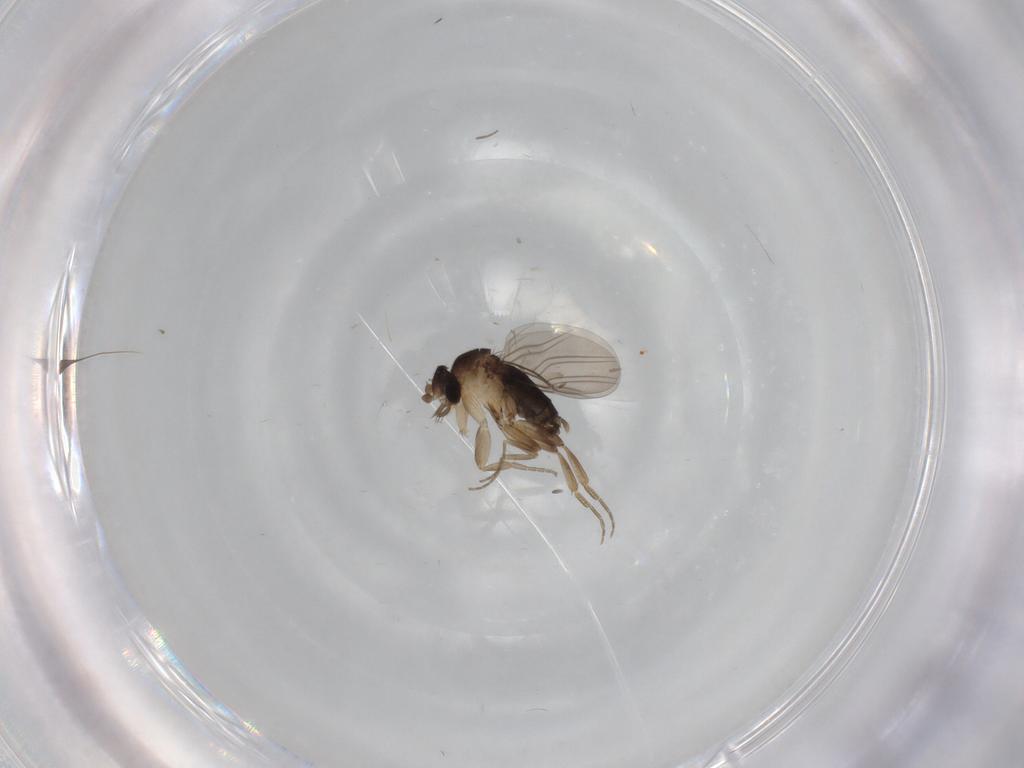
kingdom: Animalia
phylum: Arthropoda
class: Insecta
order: Diptera
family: Phoridae
